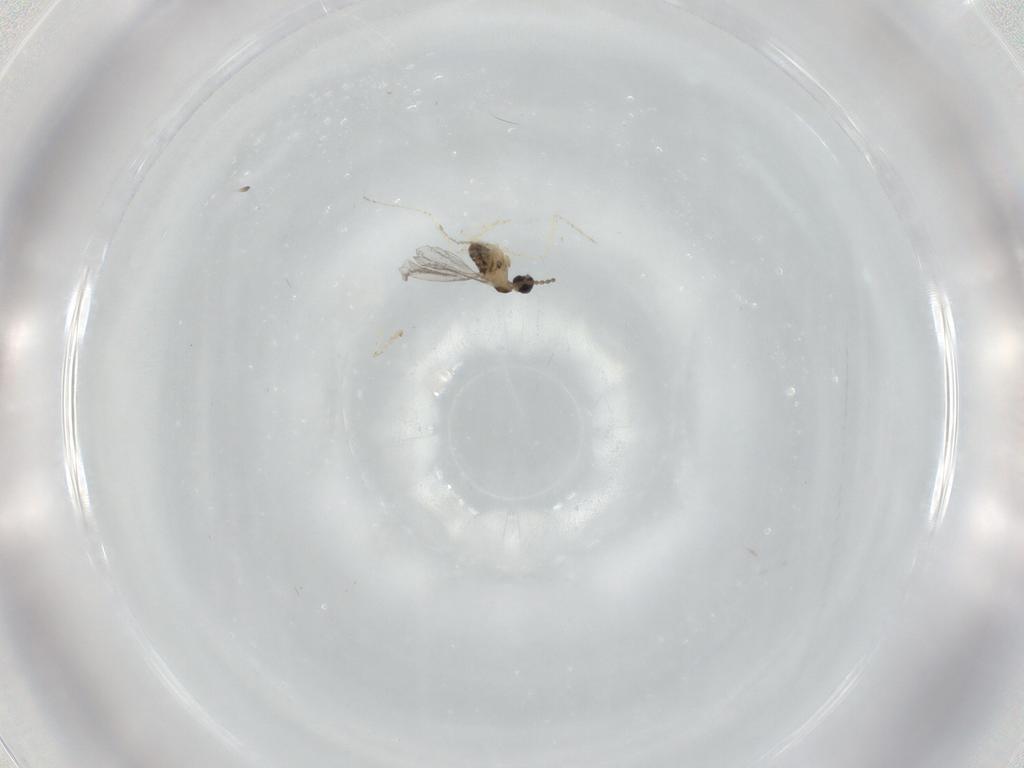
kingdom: Animalia
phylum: Arthropoda
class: Insecta
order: Diptera
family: Cecidomyiidae
